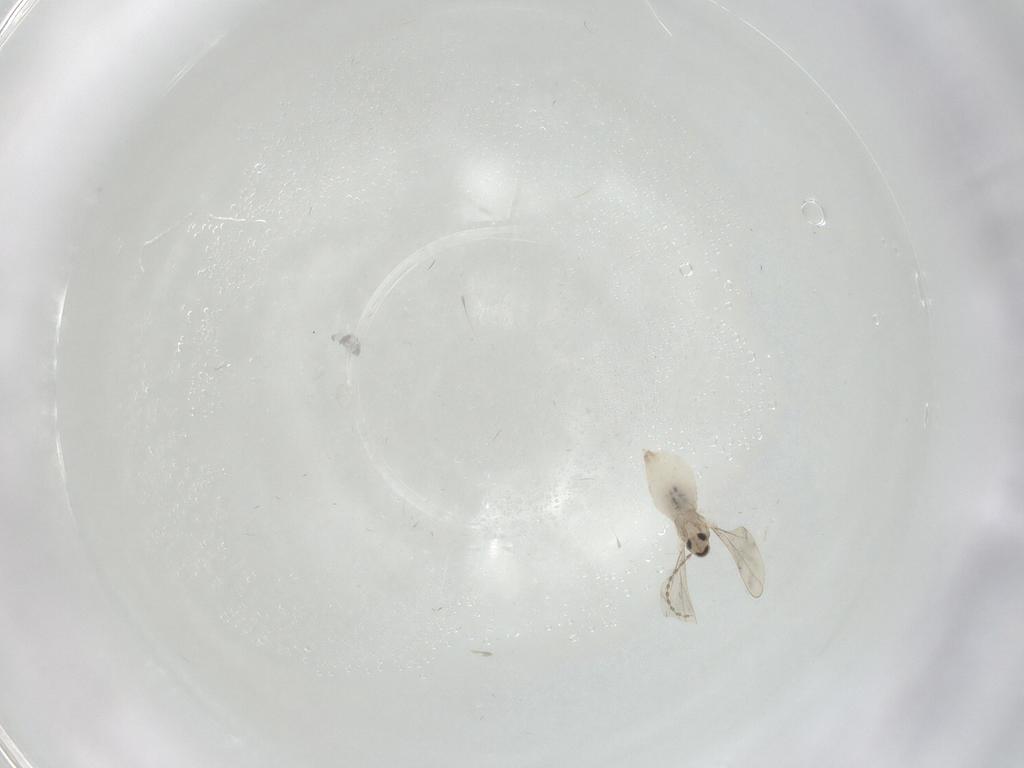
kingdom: Animalia
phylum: Arthropoda
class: Insecta
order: Diptera
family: Cecidomyiidae
